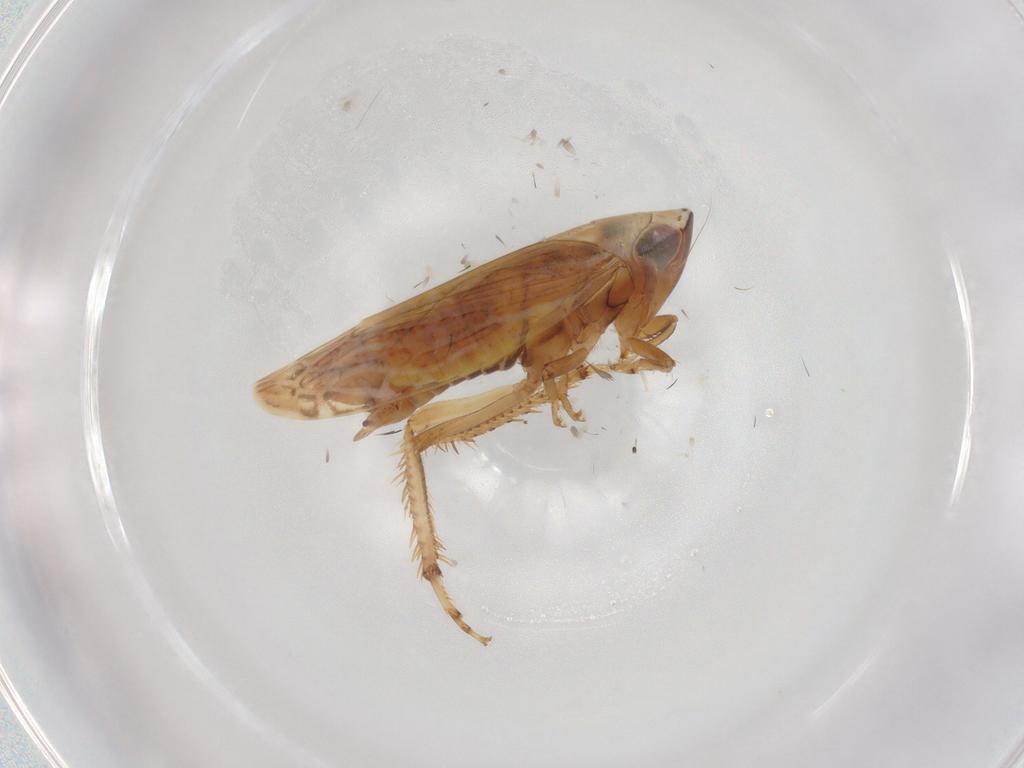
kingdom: Animalia
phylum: Arthropoda
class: Insecta
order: Hemiptera
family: Cicadellidae
